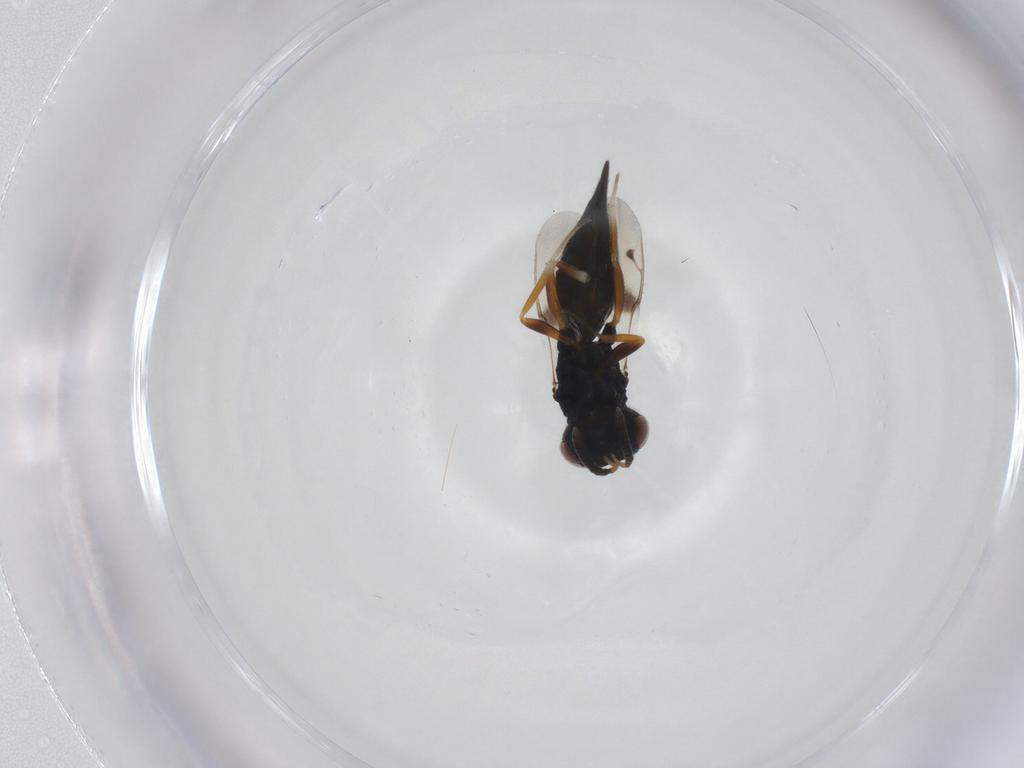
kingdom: Animalia
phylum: Arthropoda
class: Insecta
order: Hymenoptera
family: Pteromalidae
